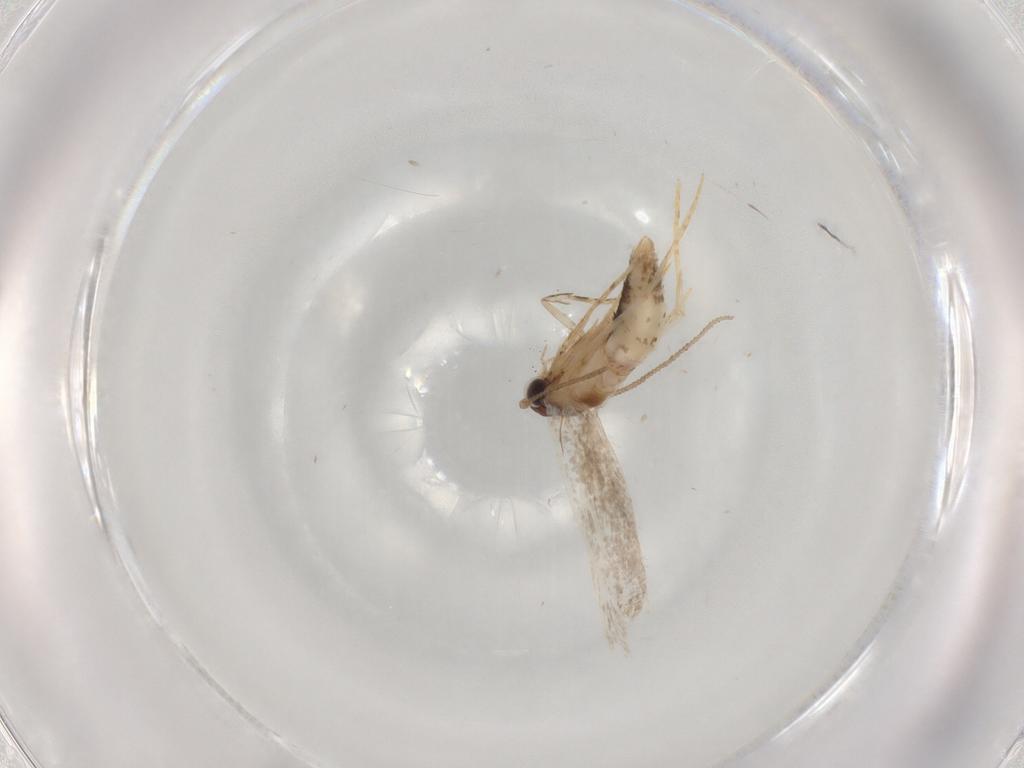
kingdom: Animalia
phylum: Arthropoda
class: Insecta
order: Lepidoptera
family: Tineidae
